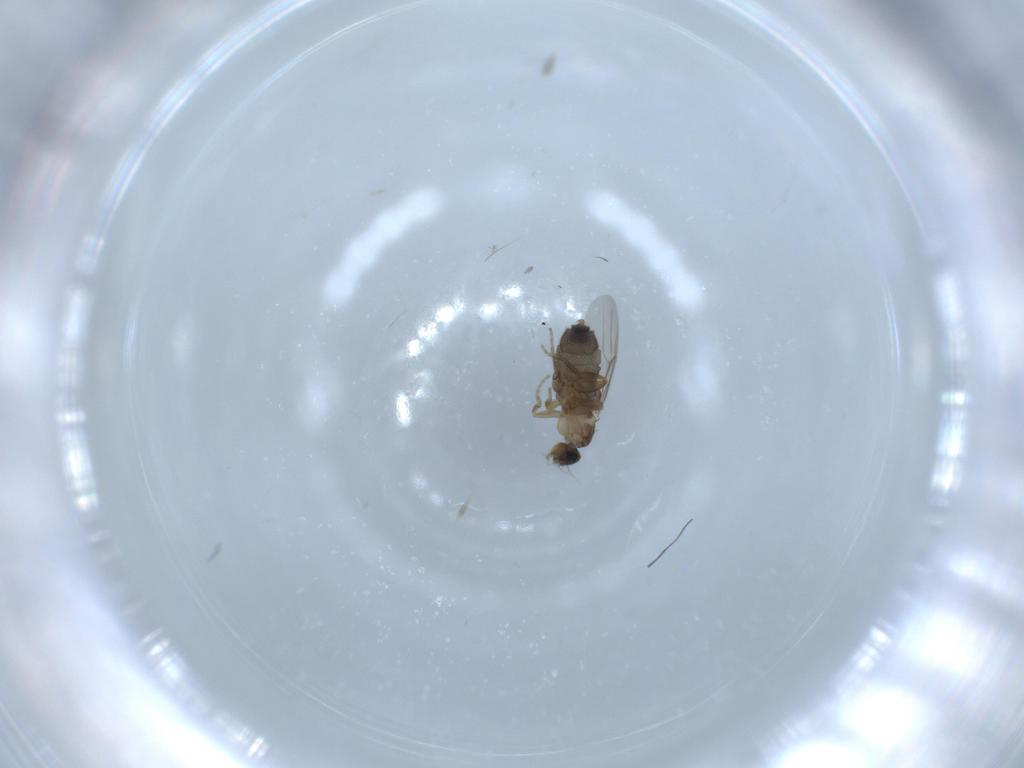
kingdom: Animalia
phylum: Arthropoda
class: Insecta
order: Diptera
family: Phoridae
